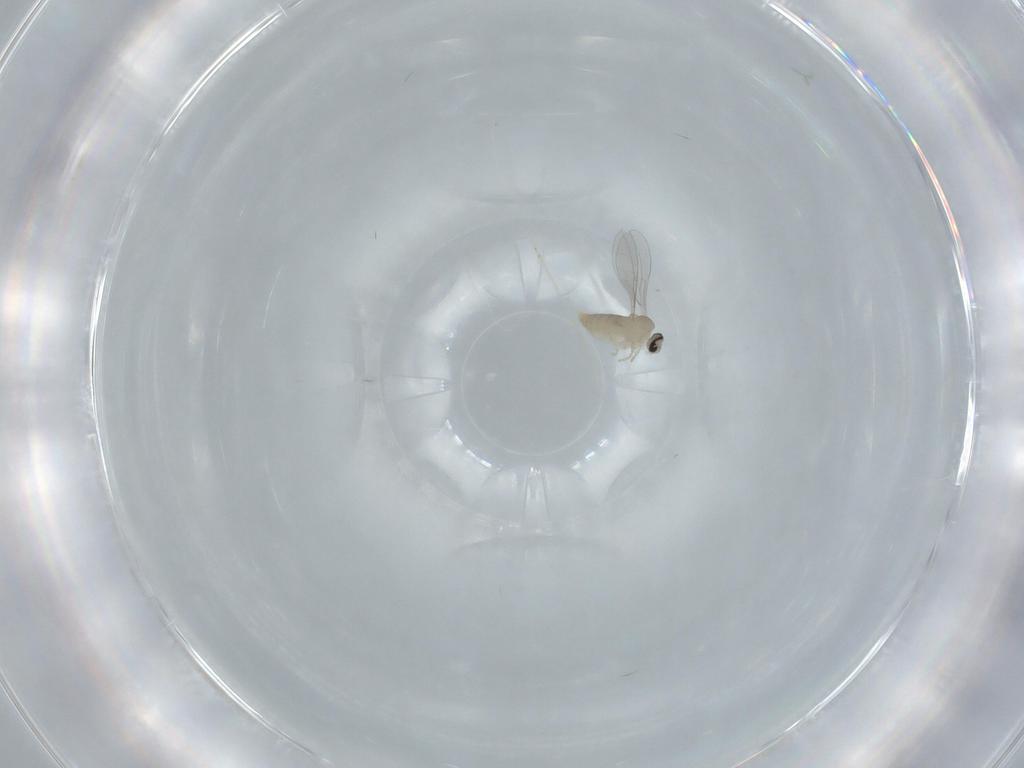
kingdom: Animalia
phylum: Arthropoda
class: Insecta
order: Diptera
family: Cecidomyiidae
